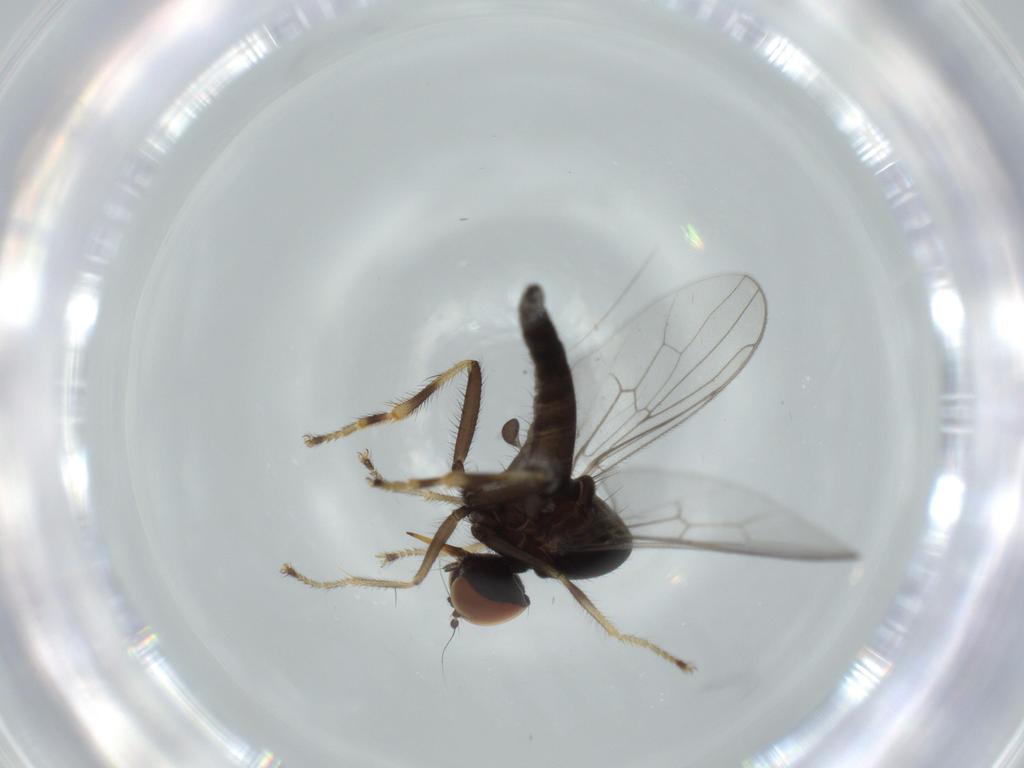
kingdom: Animalia
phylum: Arthropoda
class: Insecta
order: Diptera
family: Hybotidae
